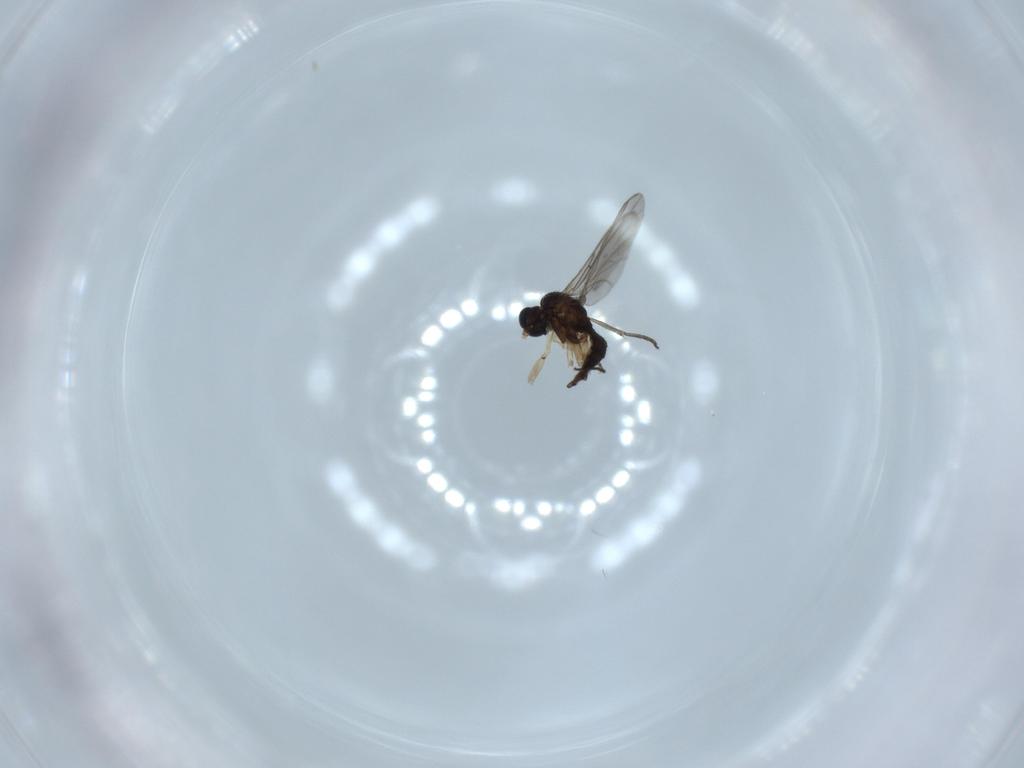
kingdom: Animalia
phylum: Arthropoda
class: Insecta
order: Diptera
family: Sciaridae
